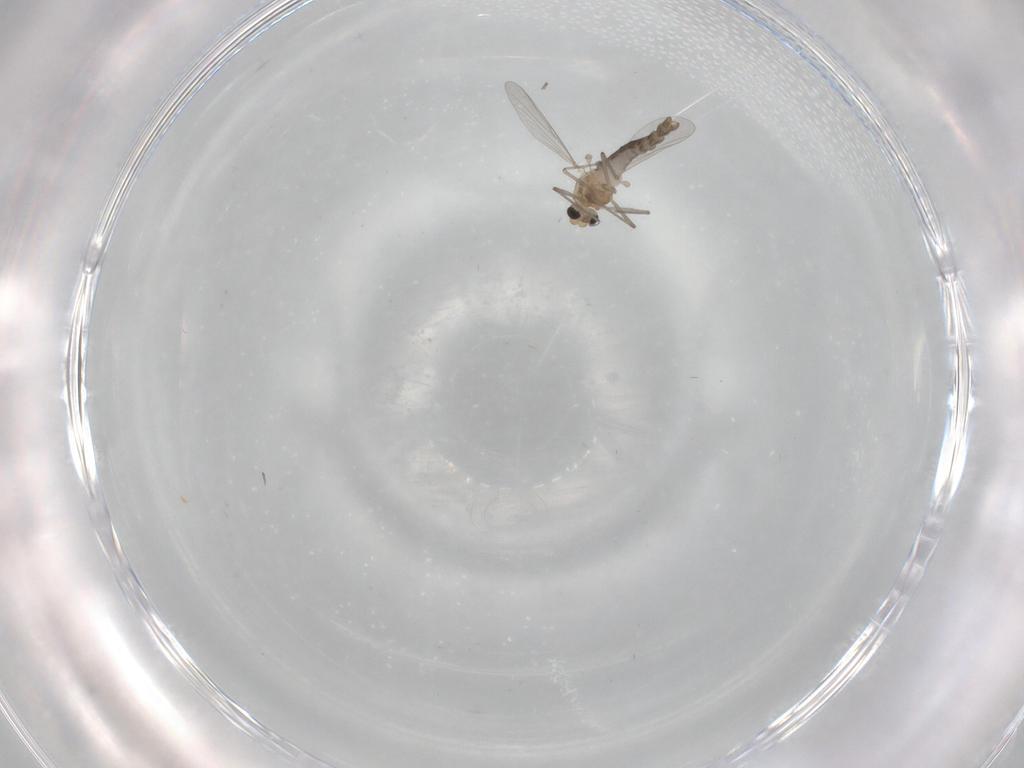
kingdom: Animalia
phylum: Arthropoda
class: Insecta
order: Diptera
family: Chironomidae
